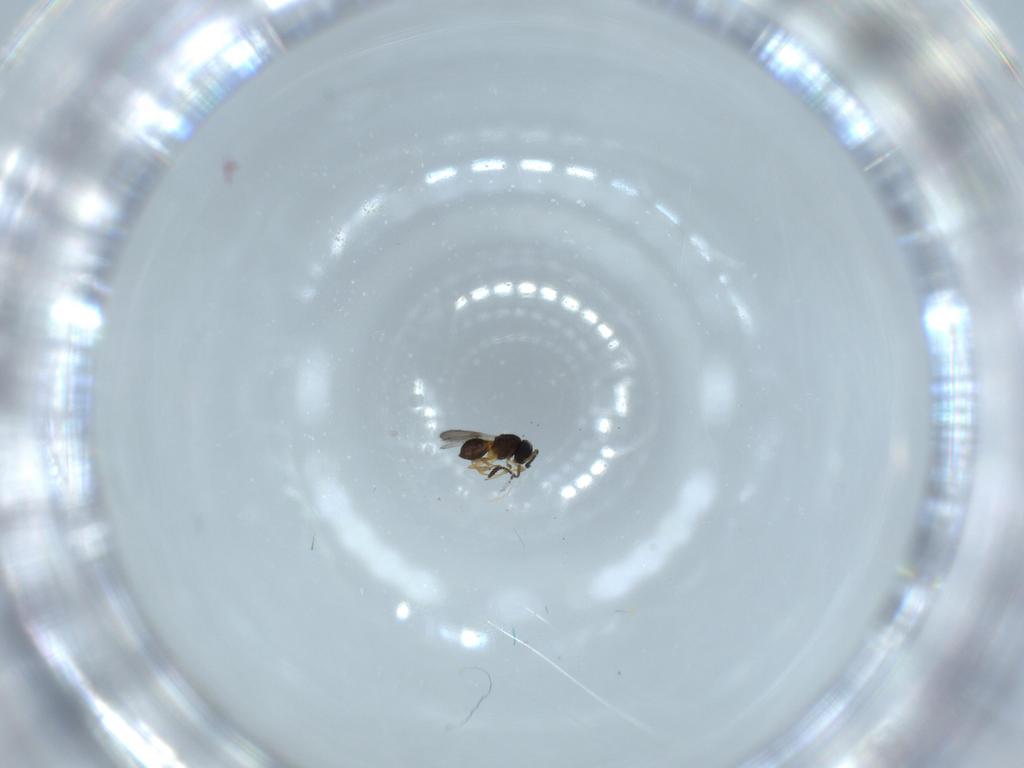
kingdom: Animalia
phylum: Arthropoda
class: Insecta
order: Hymenoptera
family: Scelionidae
